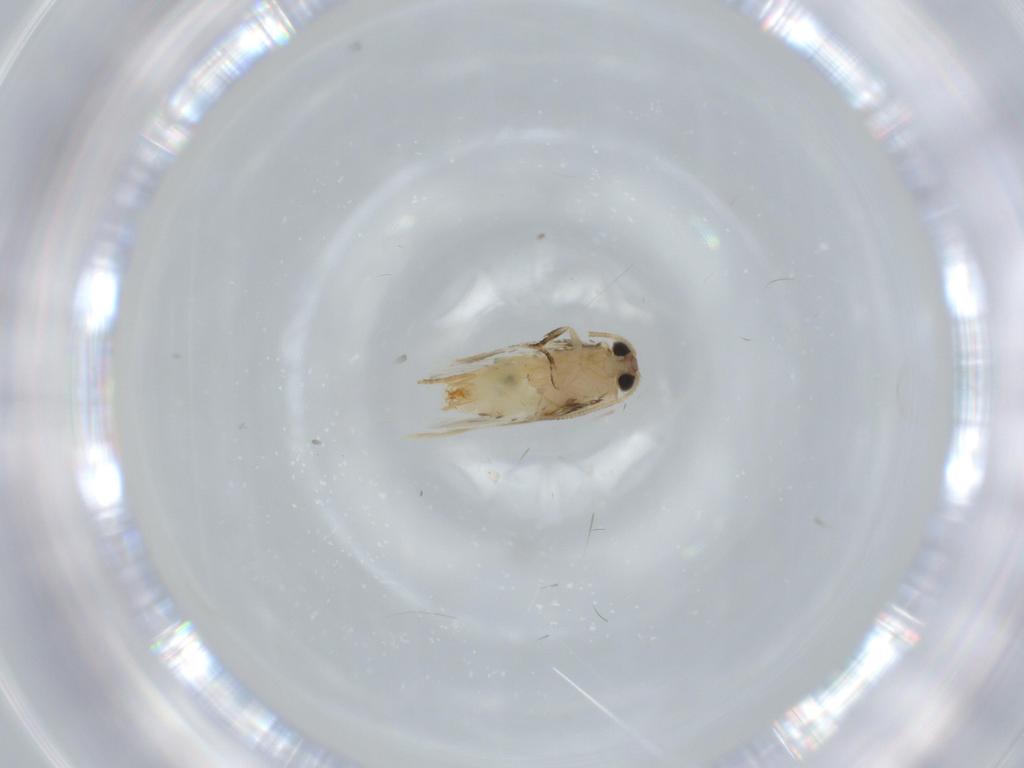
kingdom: Animalia
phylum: Arthropoda
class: Insecta
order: Lepidoptera
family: Nepticulidae
